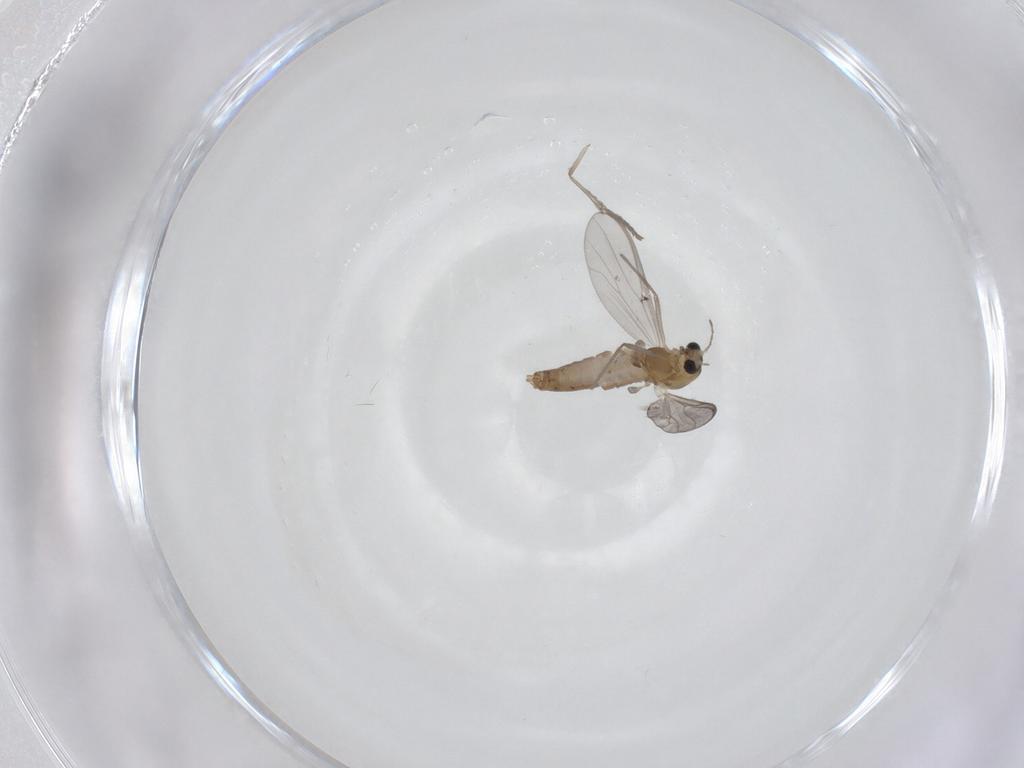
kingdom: Animalia
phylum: Arthropoda
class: Insecta
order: Diptera
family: Chironomidae
